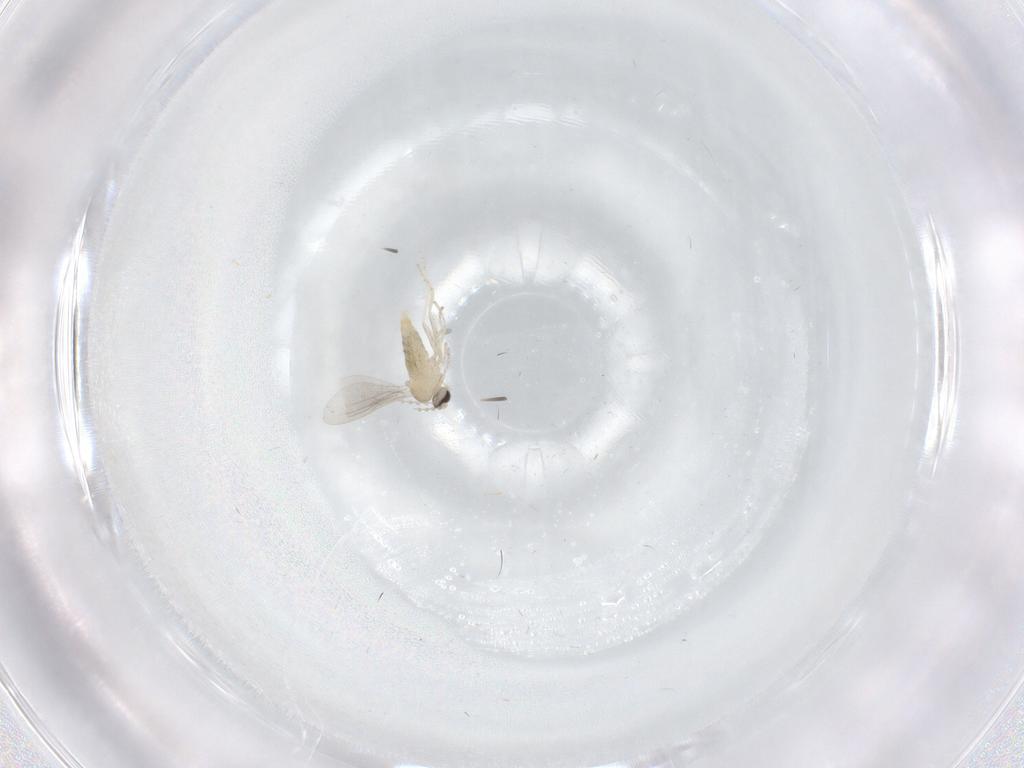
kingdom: Animalia
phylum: Arthropoda
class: Insecta
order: Diptera
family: Cecidomyiidae
